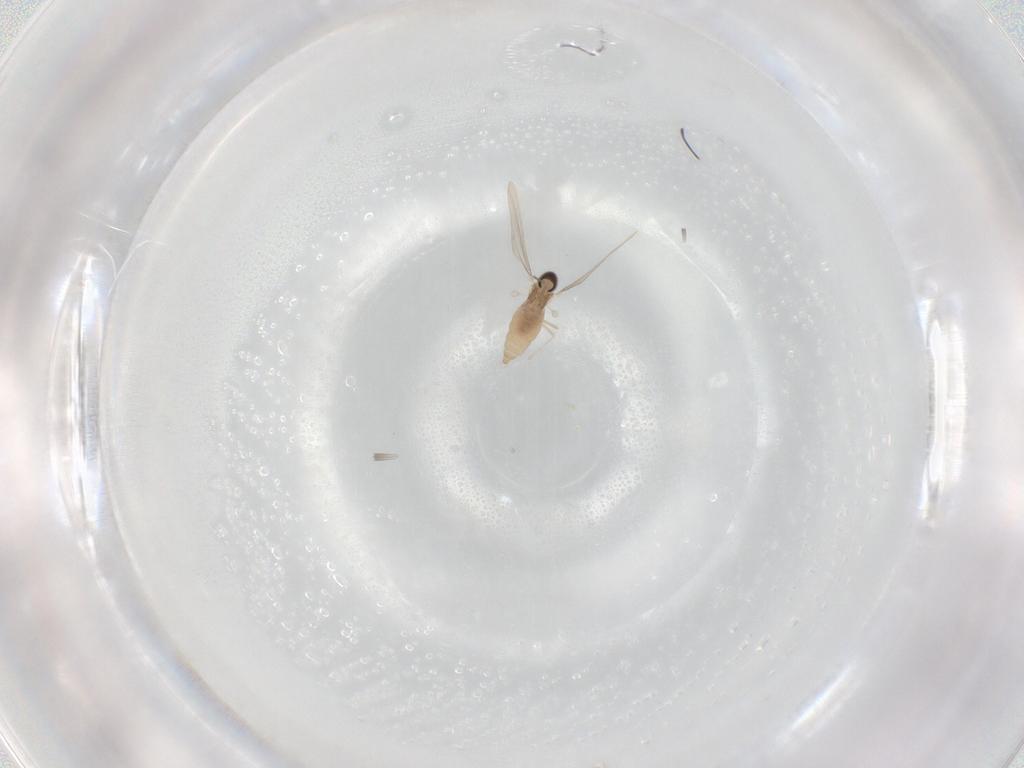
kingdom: Animalia
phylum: Arthropoda
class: Insecta
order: Diptera
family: Cecidomyiidae
